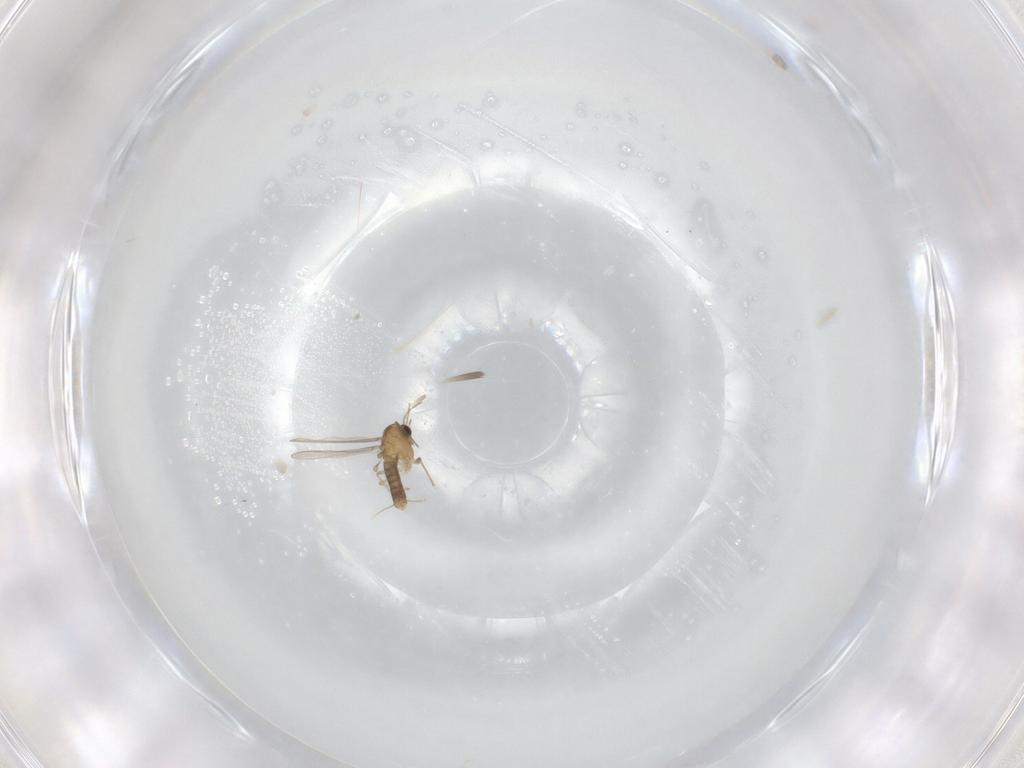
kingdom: Animalia
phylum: Arthropoda
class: Insecta
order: Diptera
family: Chironomidae
